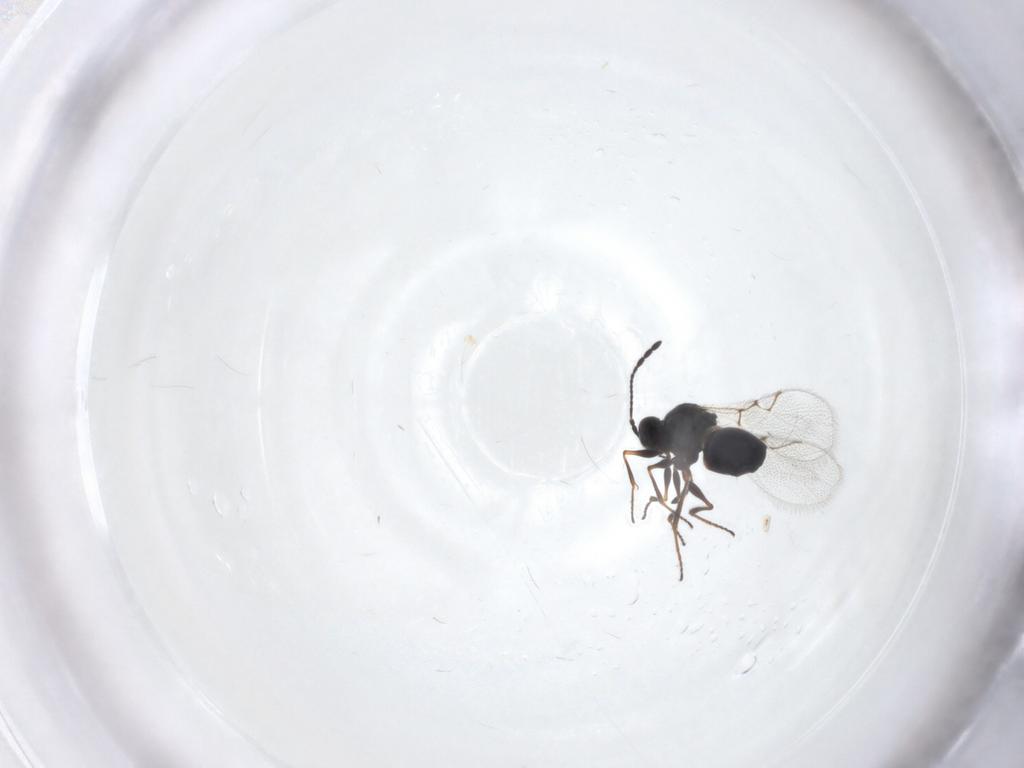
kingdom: Animalia
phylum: Arthropoda
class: Insecta
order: Hymenoptera
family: Figitidae
